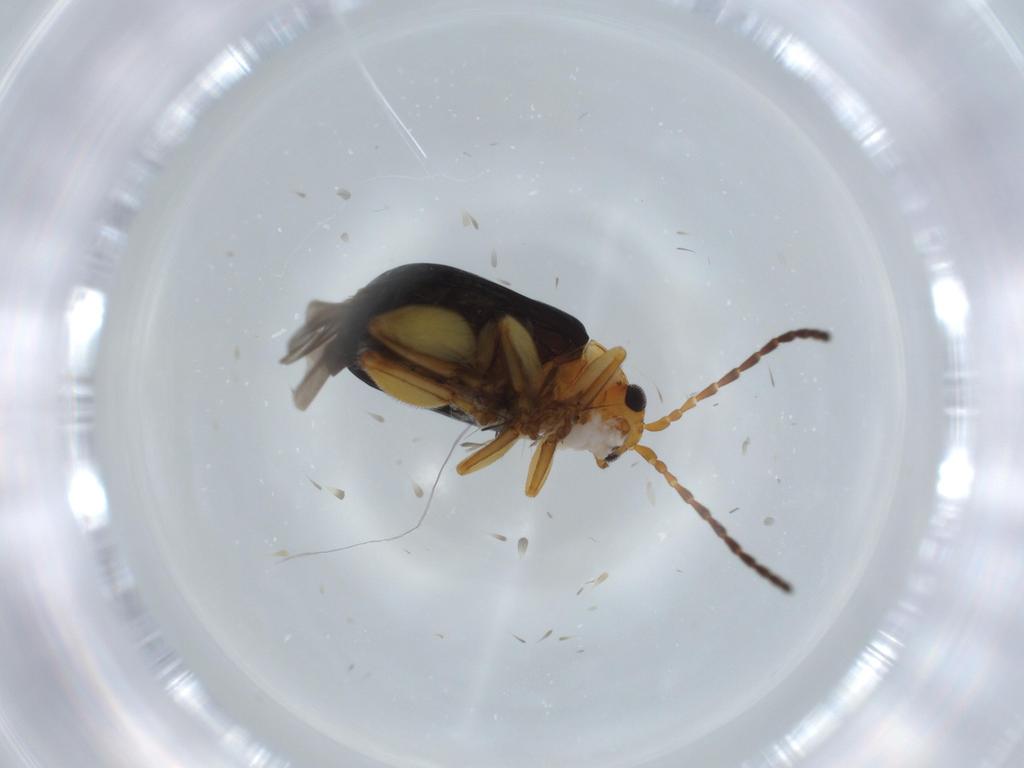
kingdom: Animalia
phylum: Arthropoda
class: Insecta
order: Coleoptera
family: Chrysomelidae
